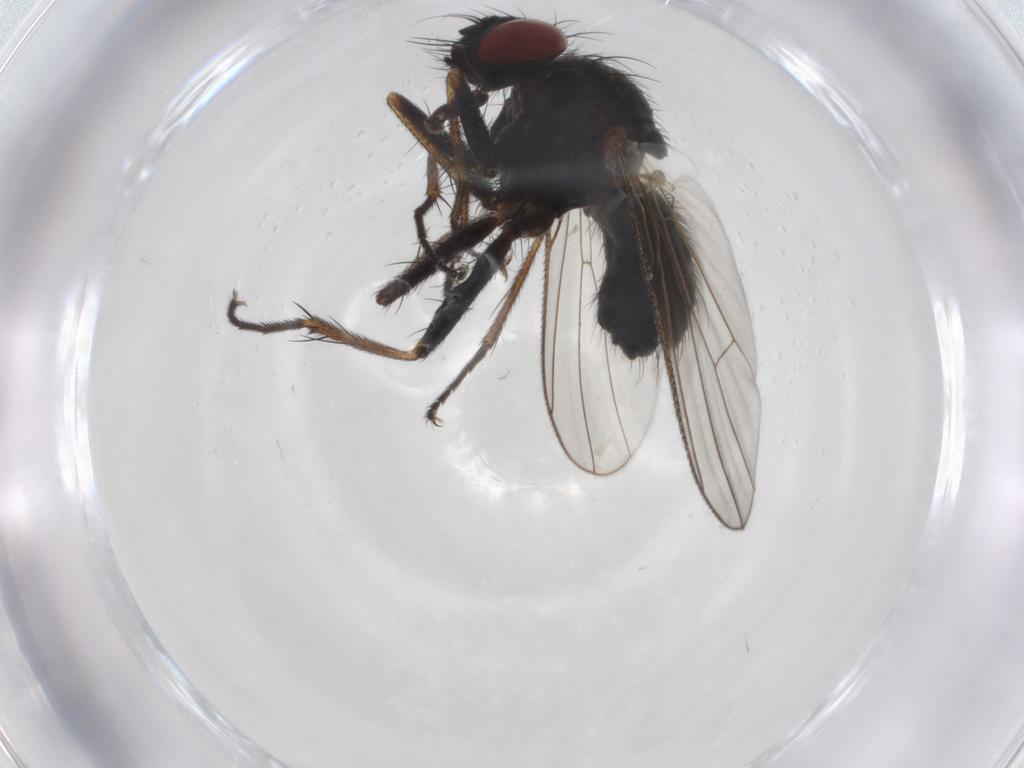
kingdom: Animalia
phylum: Arthropoda
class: Insecta
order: Psocodea
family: Peripsocidae
